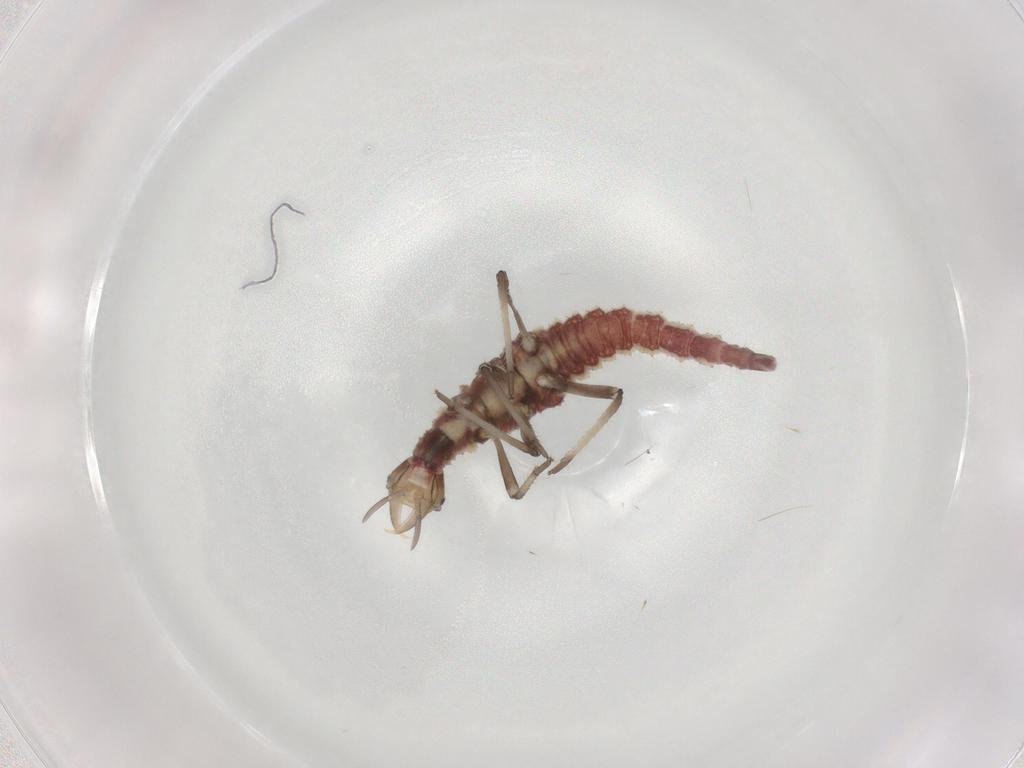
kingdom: Animalia
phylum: Arthropoda
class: Insecta
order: Neuroptera
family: Hemerobiidae
